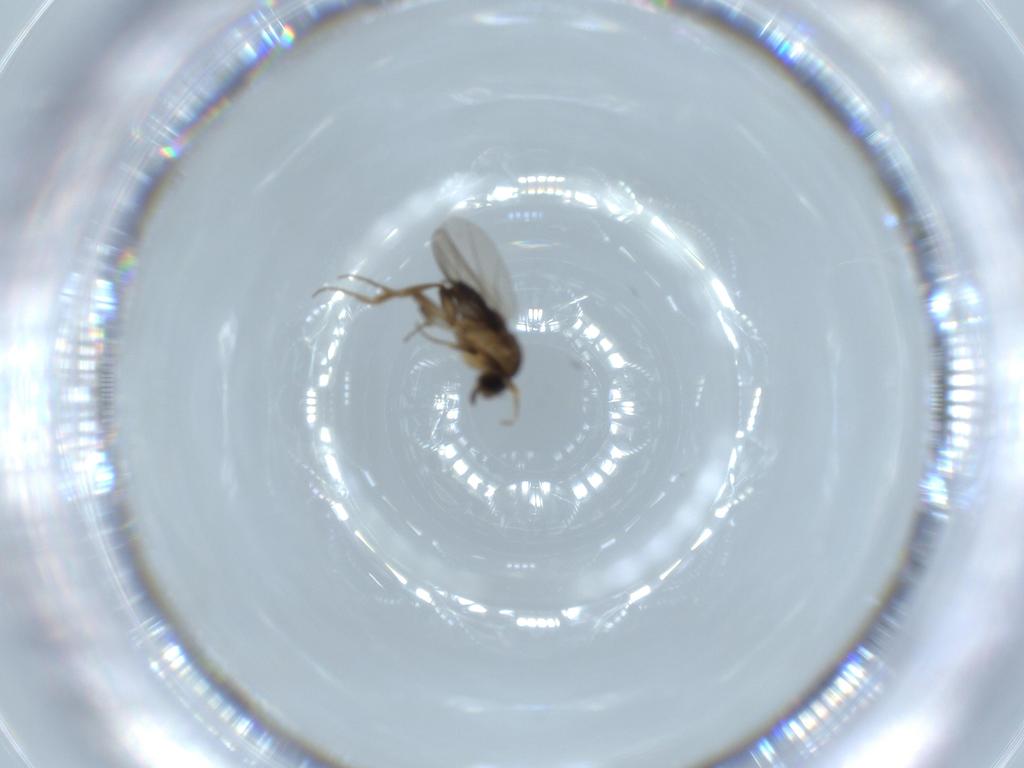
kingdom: Animalia
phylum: Arthropoda
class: Insecta
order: Diptera
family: Phoridae
